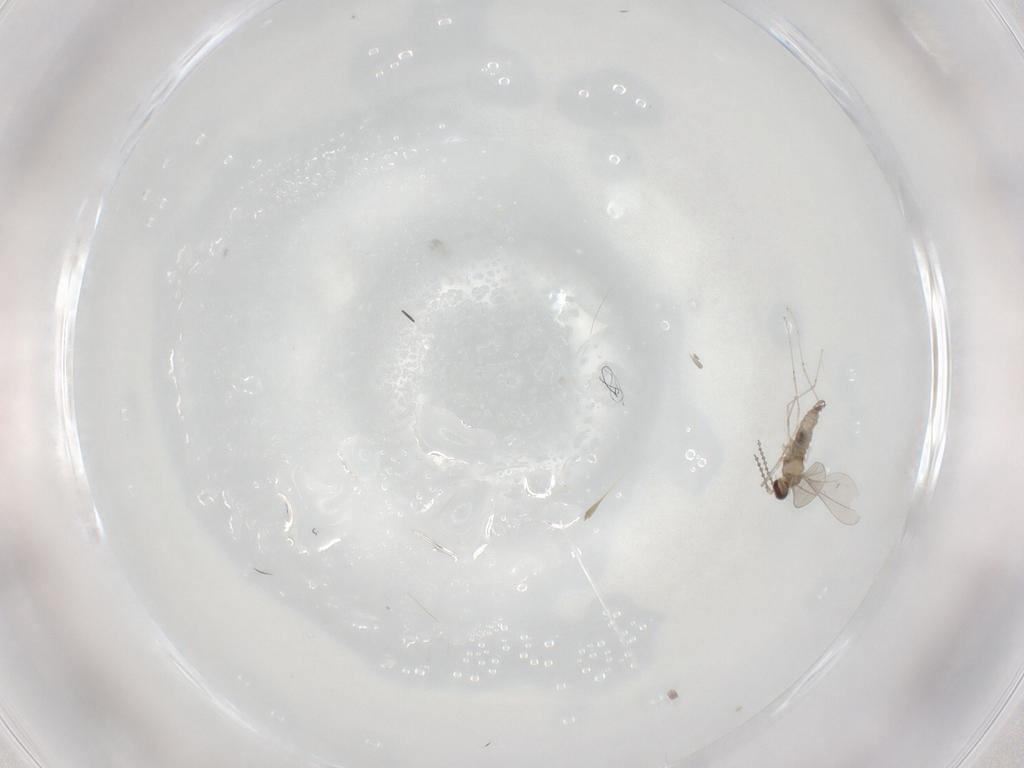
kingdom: Animalia
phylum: Arthropoda
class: Insecta
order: Diptera
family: Cecidomyiidae
